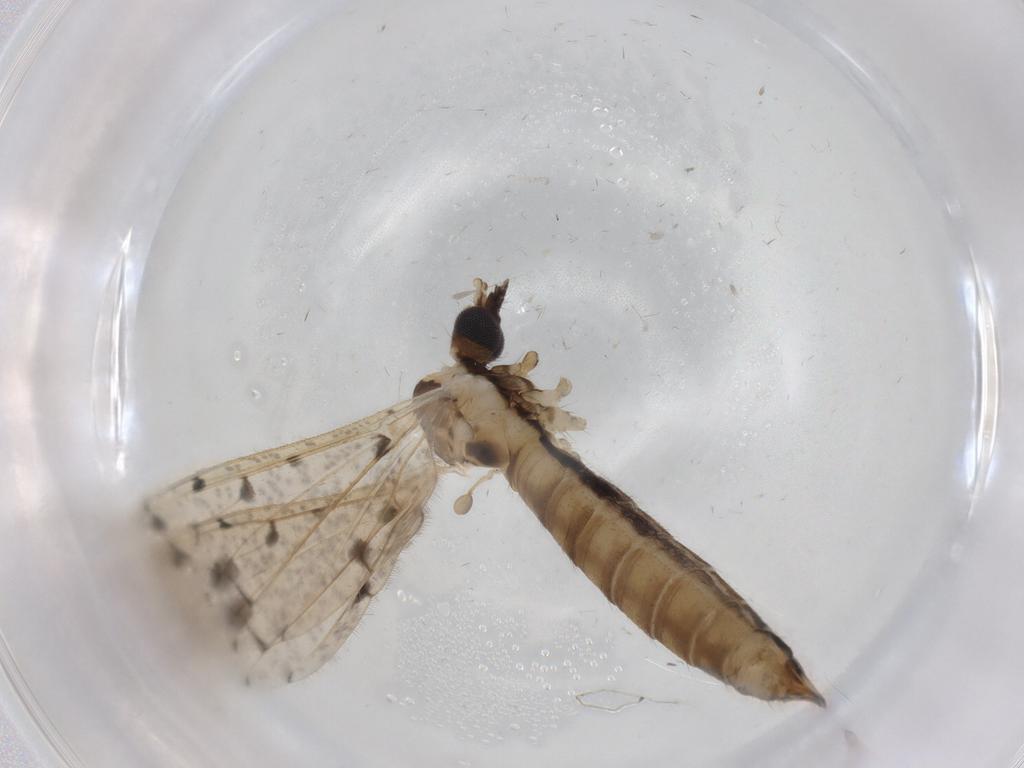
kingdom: Animalia
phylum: Arthropoda
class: Insecta
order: Diptera
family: Limoniidae
